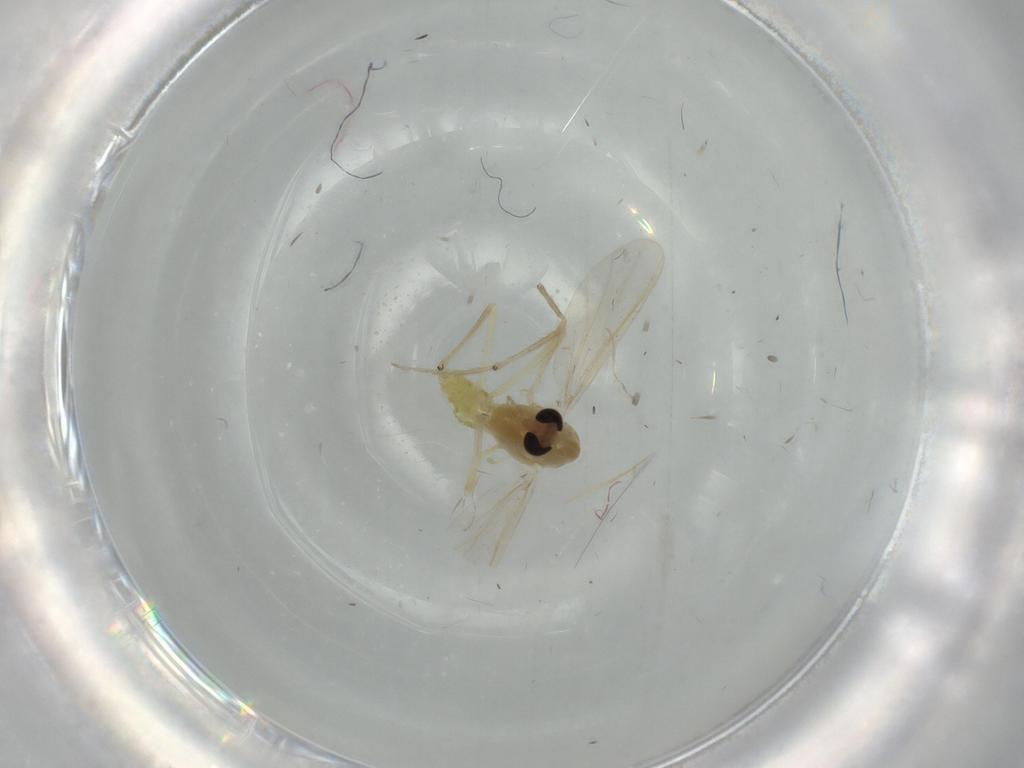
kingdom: Animalia
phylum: Arthropoda
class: Insecta
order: Diptera
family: Chironomidae
